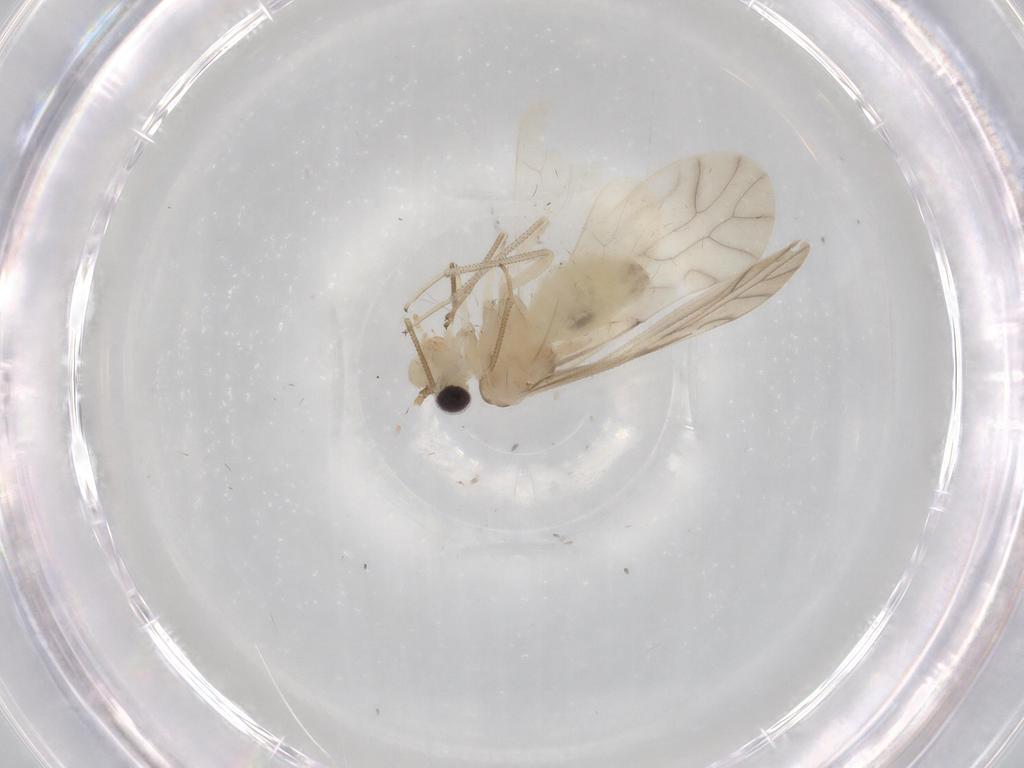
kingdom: Animalia
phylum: Arthropoda
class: Insecta
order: Psocodea
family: Caeciliusidae
